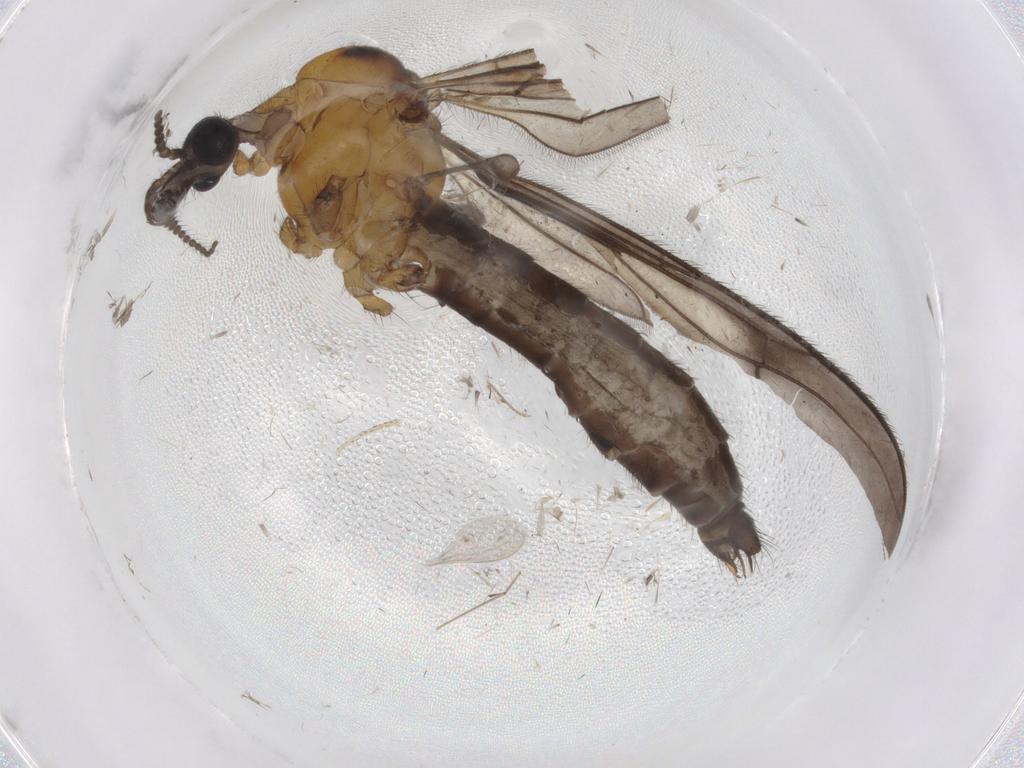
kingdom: Animalia
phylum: Arthropoda
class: Insecta
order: Diptera
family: Limoniidae
